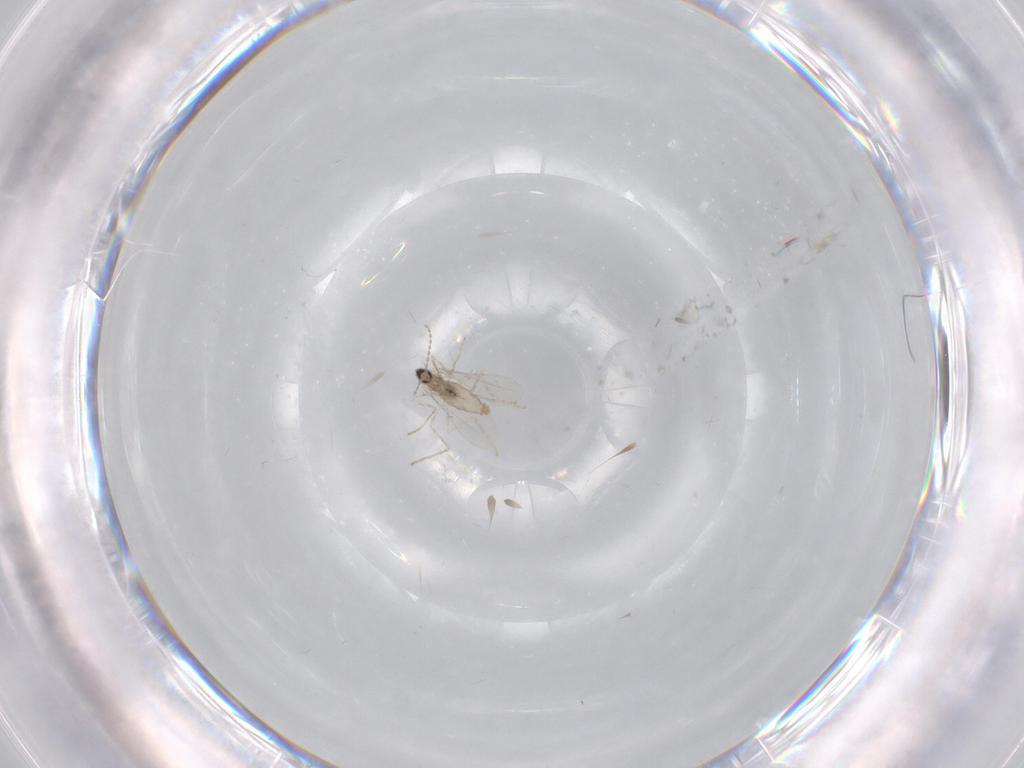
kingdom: Animalia
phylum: Arthropoda
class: Insecta
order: Diptera
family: Cecidomyiidae
